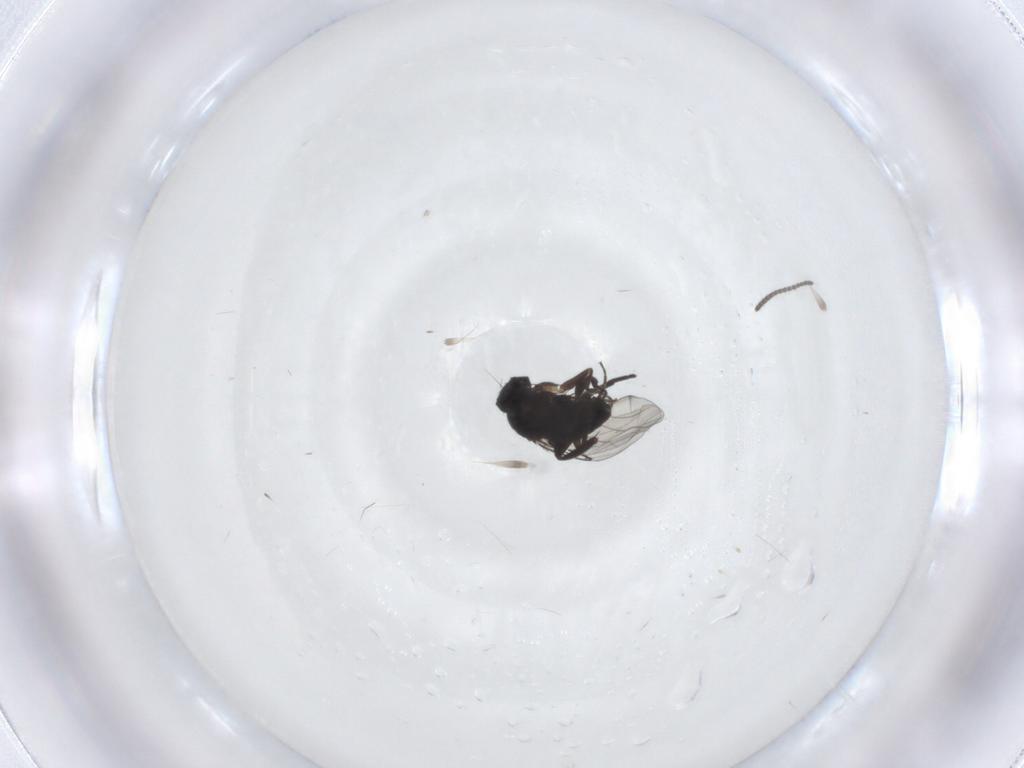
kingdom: Animalia
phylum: Arthropoda
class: Insecta
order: Diptera
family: Sciaridae
